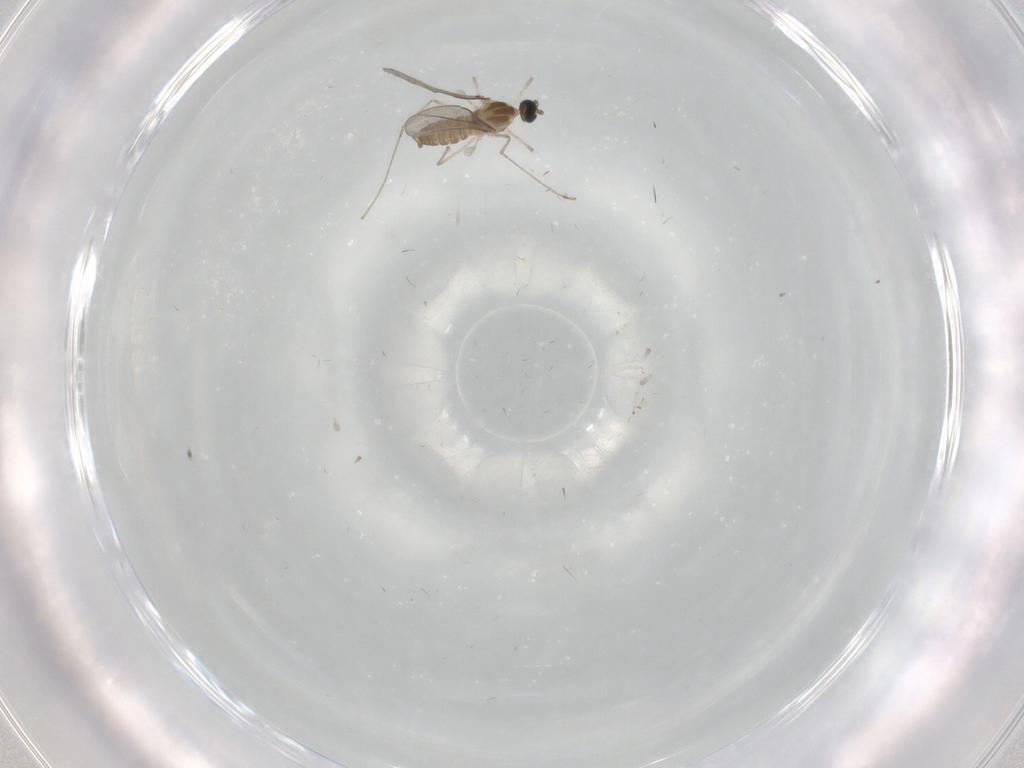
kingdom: Animalia
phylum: Arthropoda
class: Insecta
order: Diptera
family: Cecidomyiidae
